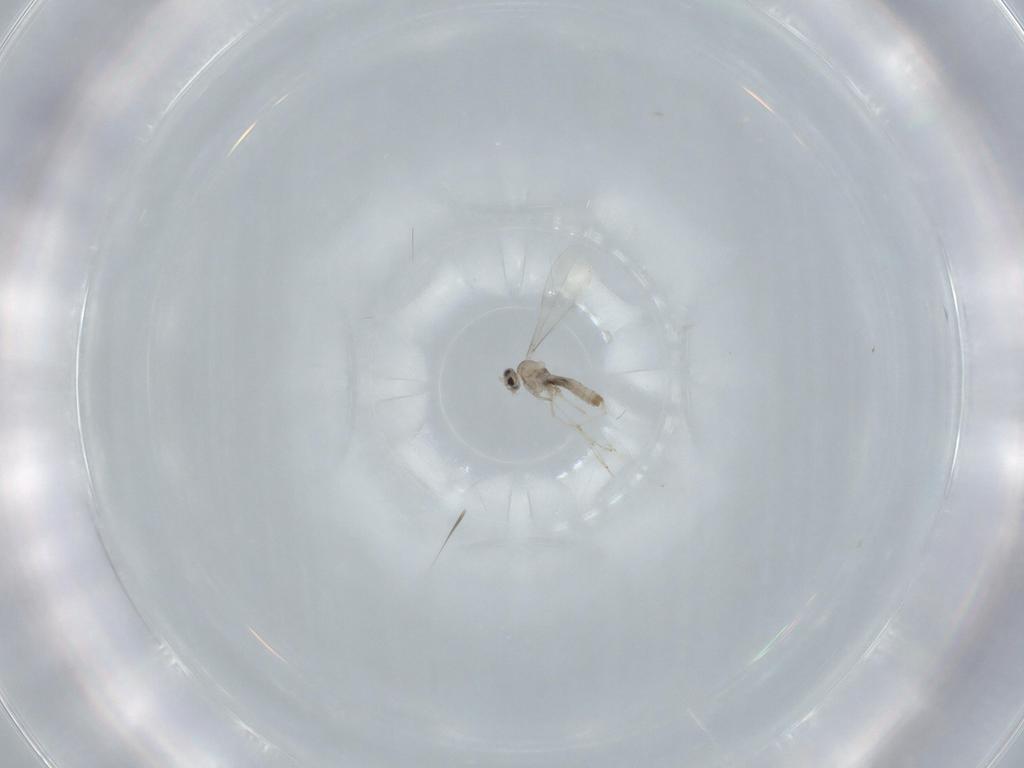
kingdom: Animalia
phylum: Arthropoda
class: Insecta
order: Diptera
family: Cecidomyiidae
